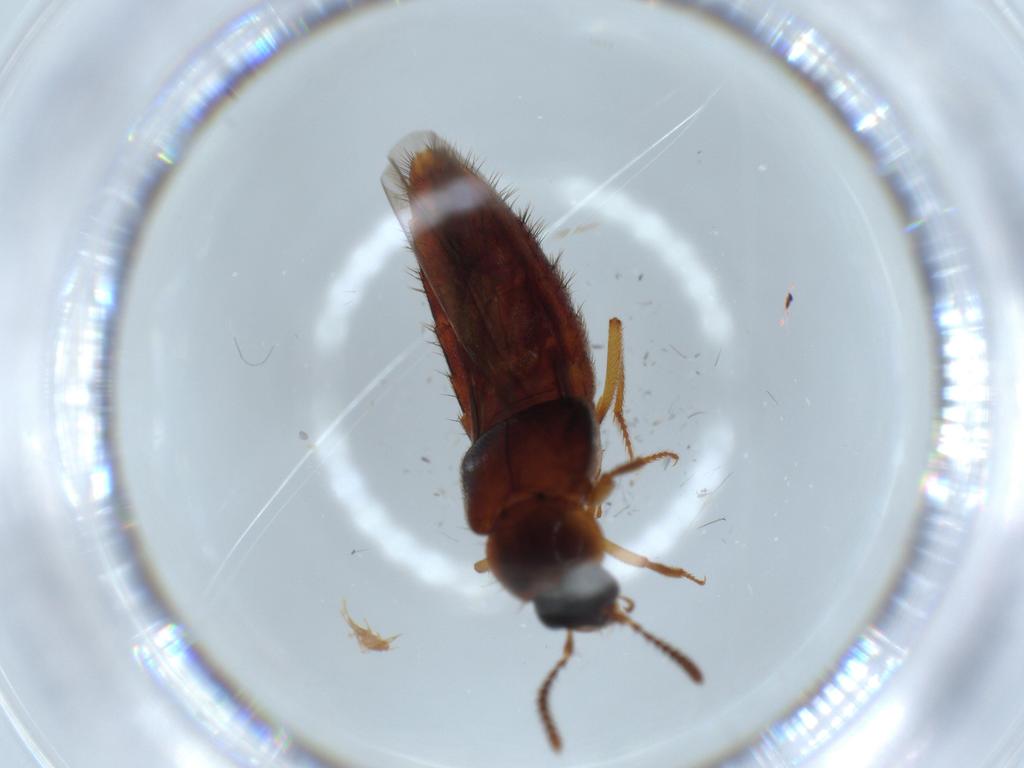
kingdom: Animalia
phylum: Arthropoda
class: Insecta
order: Coleoptera
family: Staphylinidae
